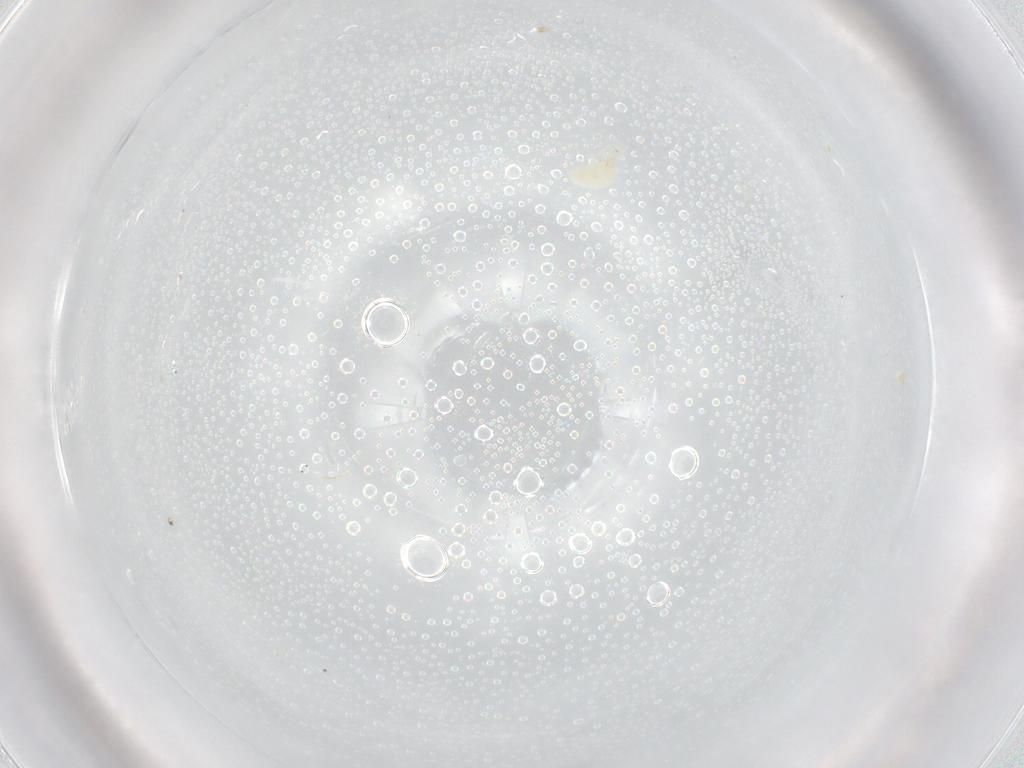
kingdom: Animalia
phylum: Arthropoda
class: Arachnida
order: Trombidiformes
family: Eupodidae
